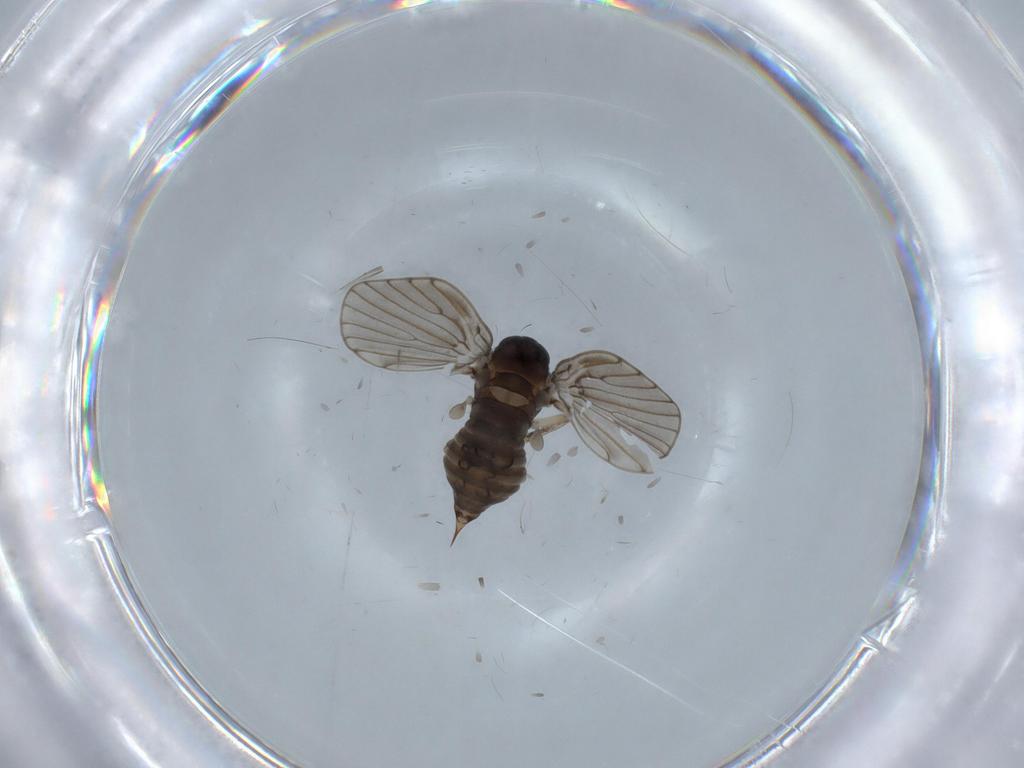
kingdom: Animalia
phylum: Arthropoda
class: Insecta
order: Diptera
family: Psychodidae
